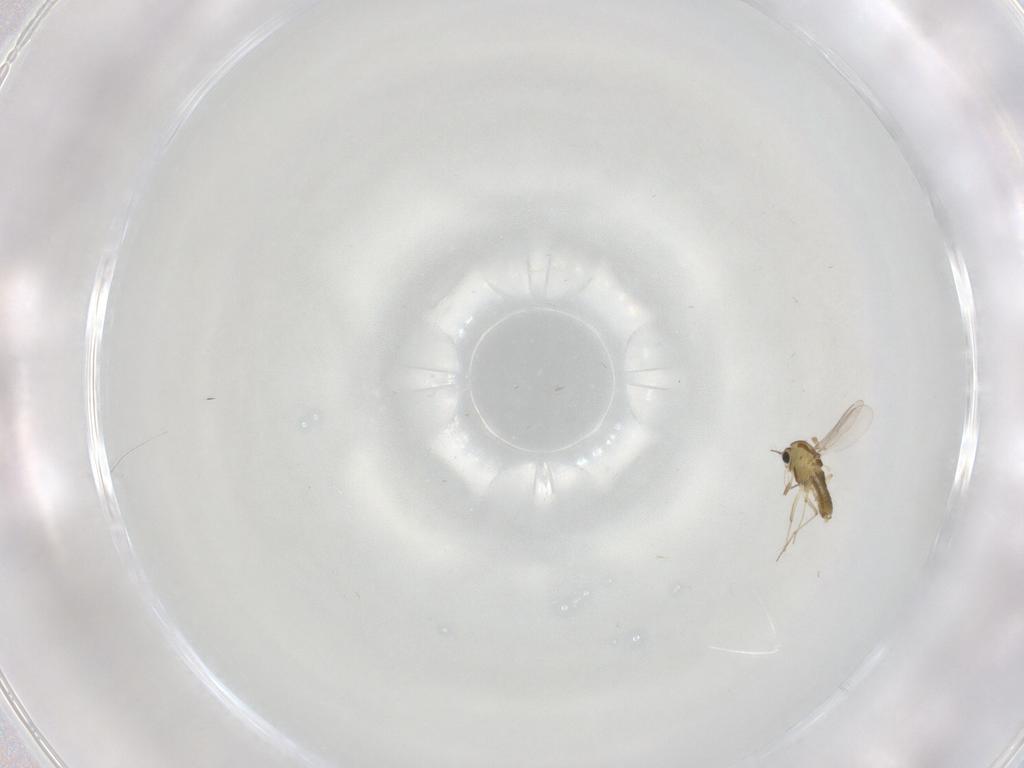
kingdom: Animalia
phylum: Arthropoda
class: Insecta
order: Diptera
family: Chironomidae
